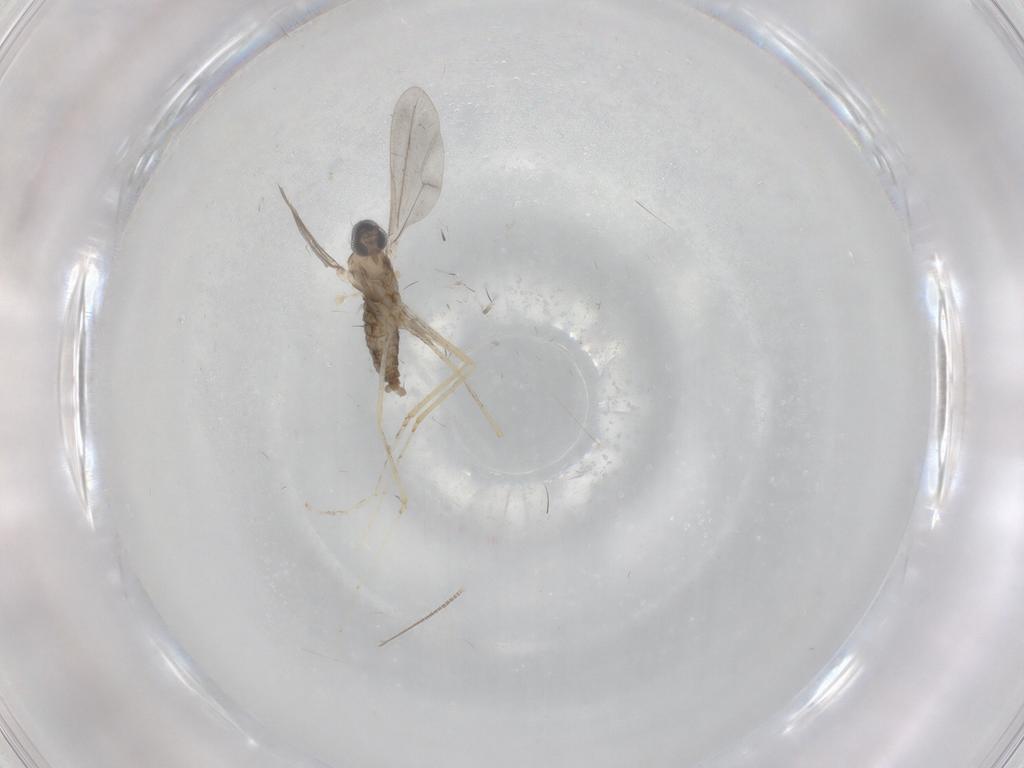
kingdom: Animalia
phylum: Arthropoda
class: Insecta
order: Diptera
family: Cecidomyiidae
